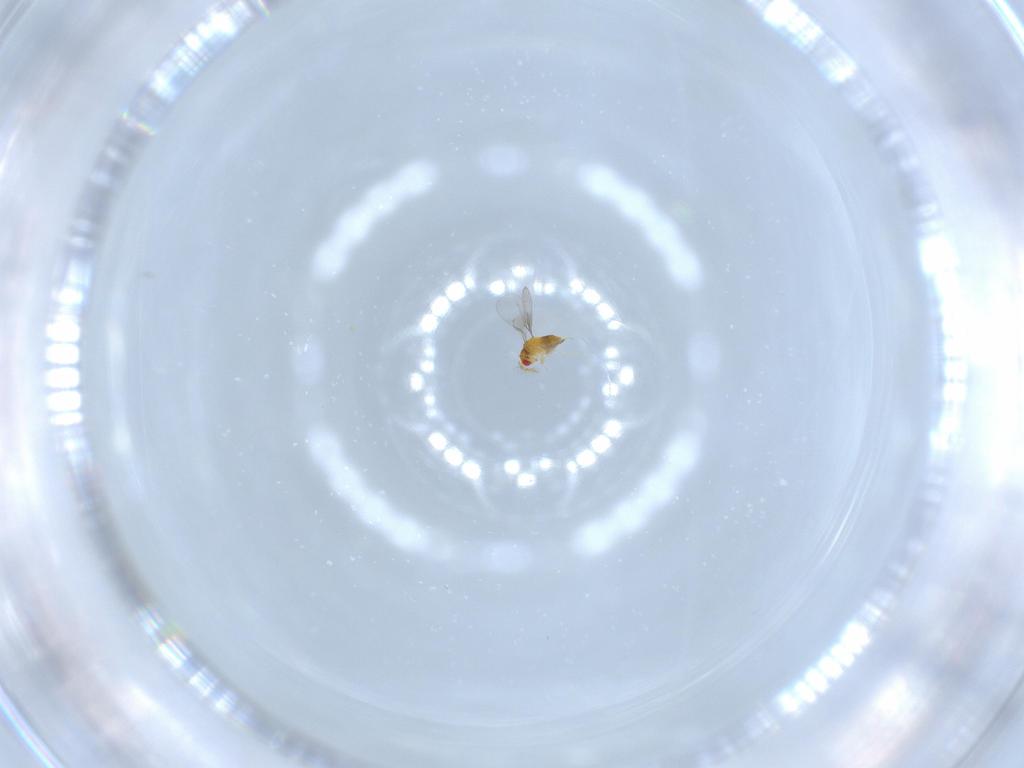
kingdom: Animalia
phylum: Arthropoda
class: Insecta
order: Hymenoptera
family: Trichogrammatidae
